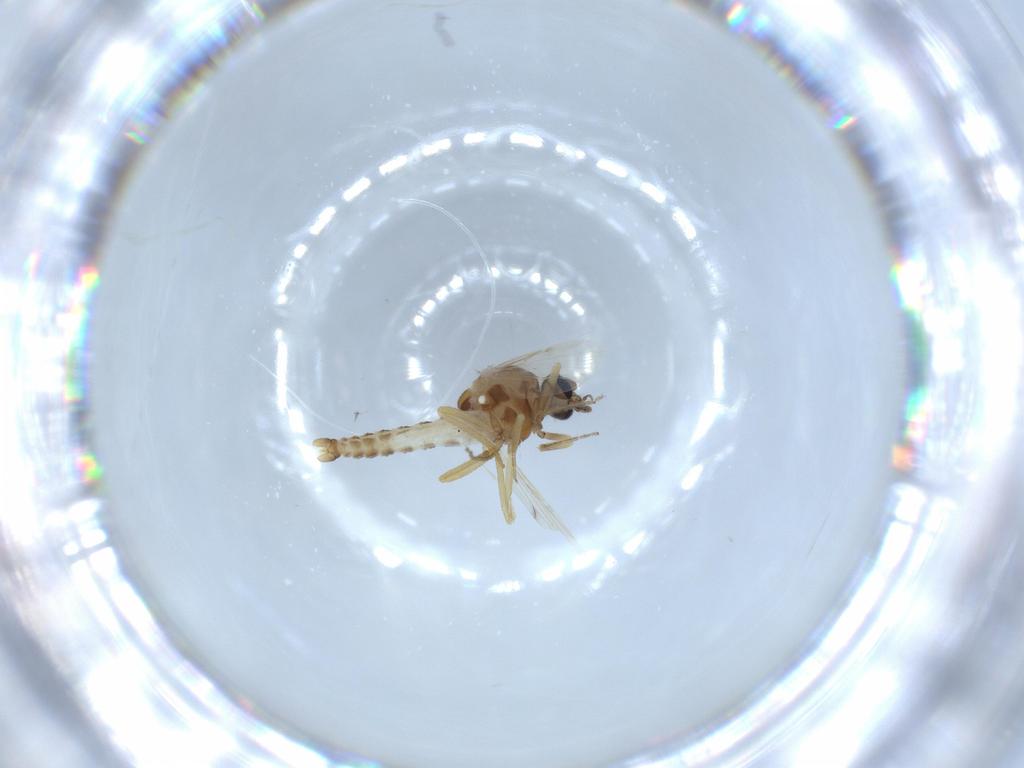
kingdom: Animalia
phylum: Arthropoda
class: Insecta
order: Diptera
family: Ceratopogonidae
